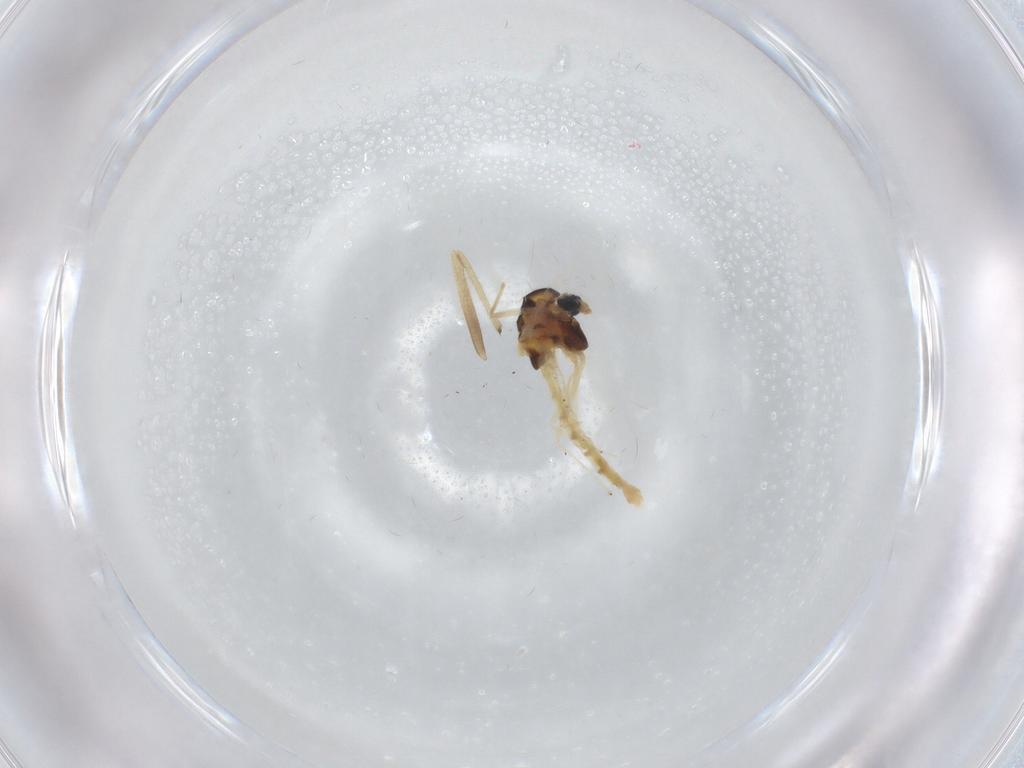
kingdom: Animalia
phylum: Arthropoda
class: Insecta
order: Diptera
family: Chironomidae
